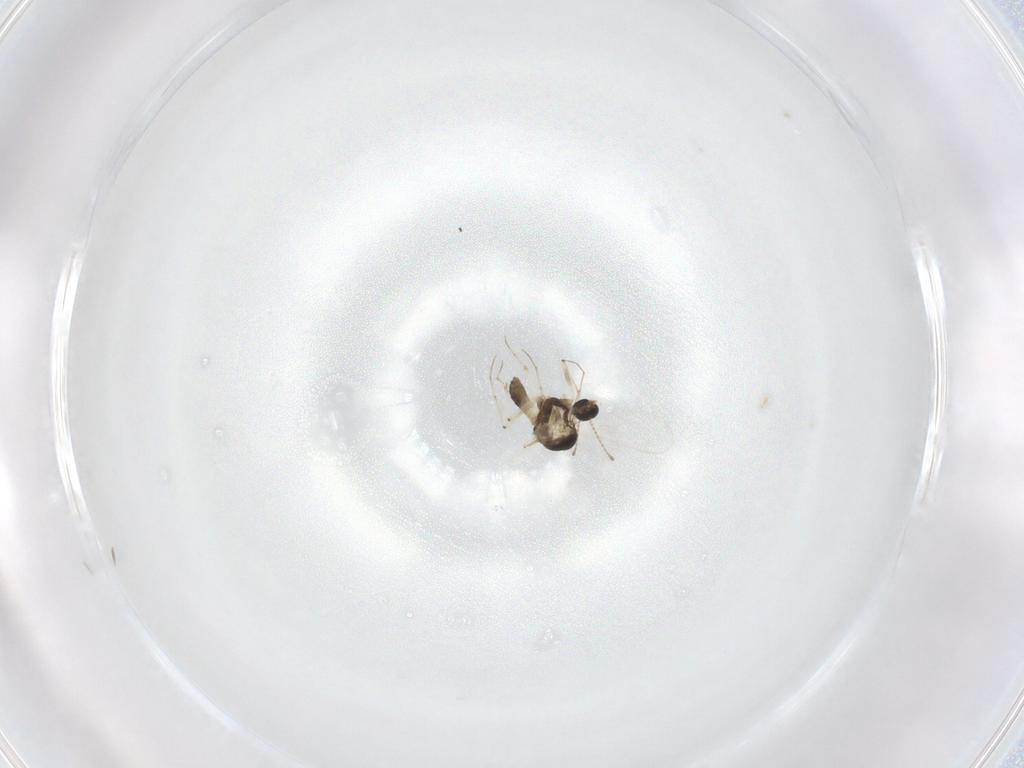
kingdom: Animalia
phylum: Arthropoda
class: Insecta
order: Diptera
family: Chironomidae
